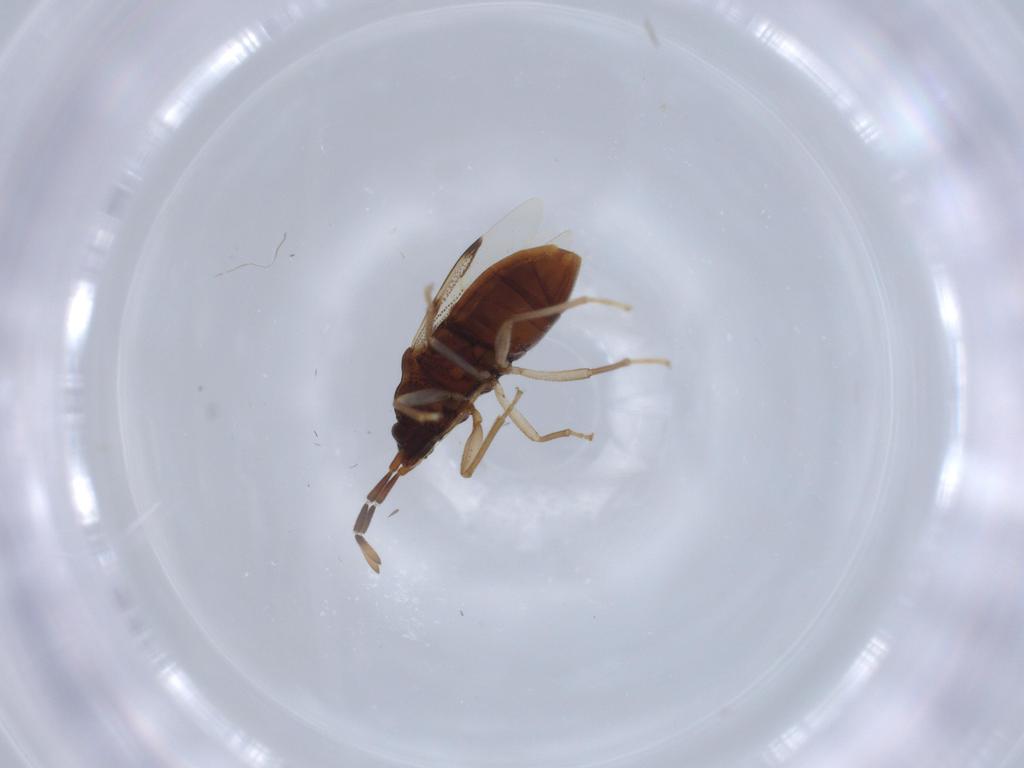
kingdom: Animalia
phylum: Arthropoda
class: Insecta
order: Hemiptera
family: Rhyparochromidae
